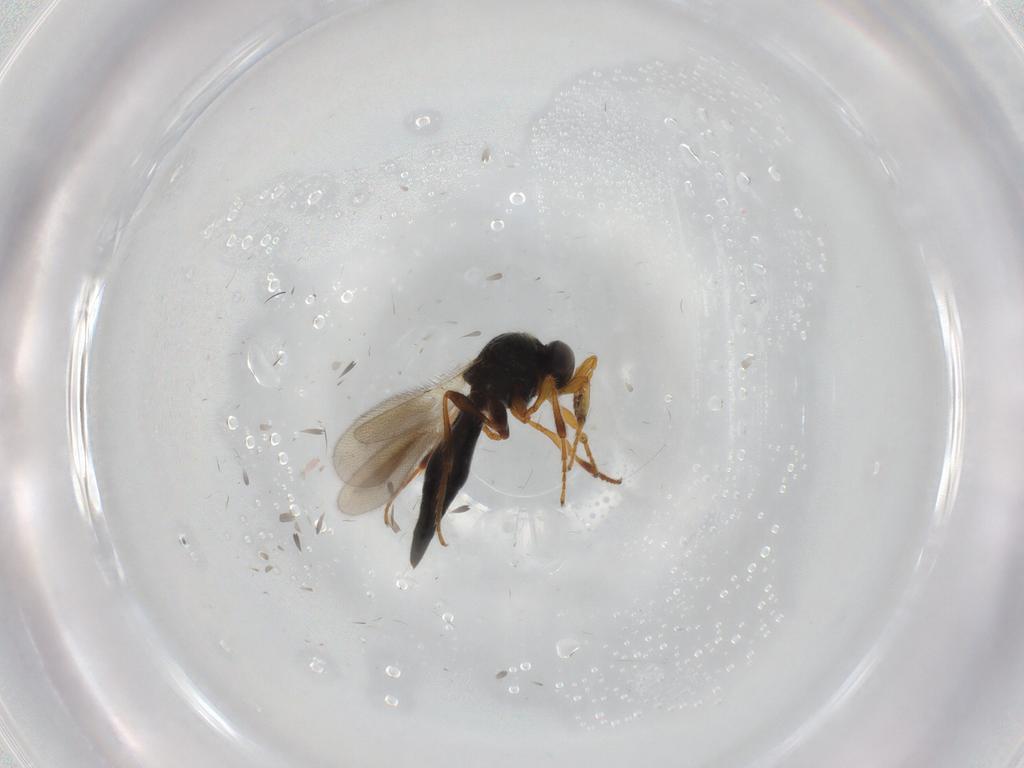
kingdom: Animalia
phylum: Arthropoda
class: Insecta
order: Hymenoptera
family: Platygastridae
